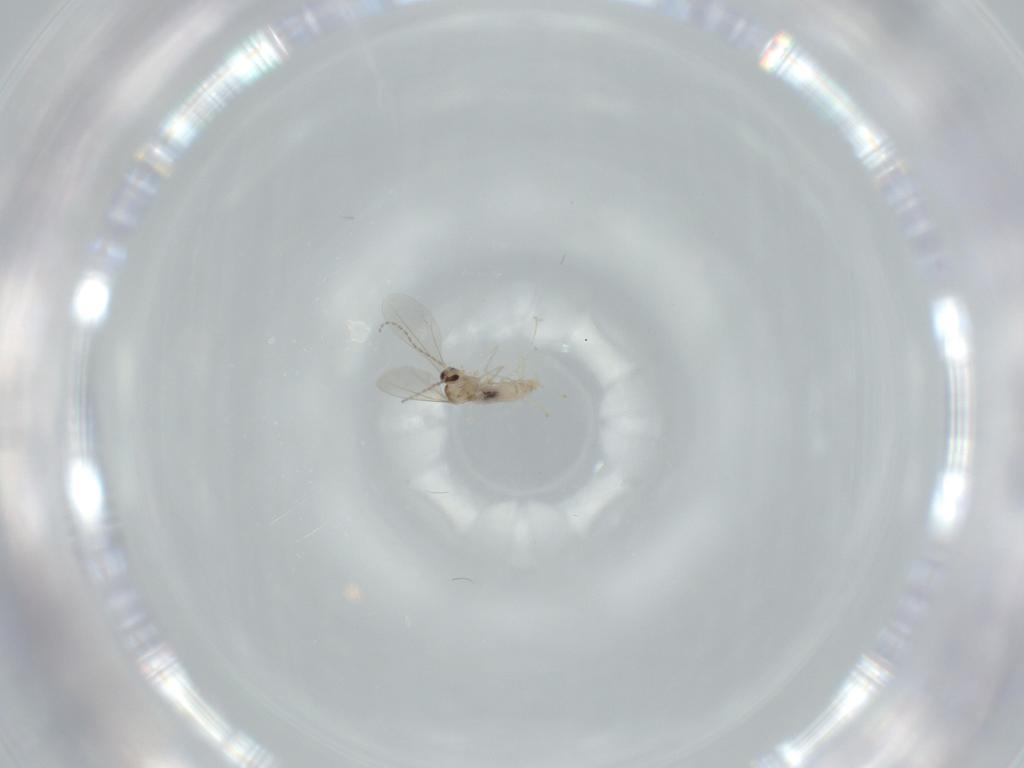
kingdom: Animalia
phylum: Arthropoda
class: Insecta
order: Diptera
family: Cecidomyiidae
